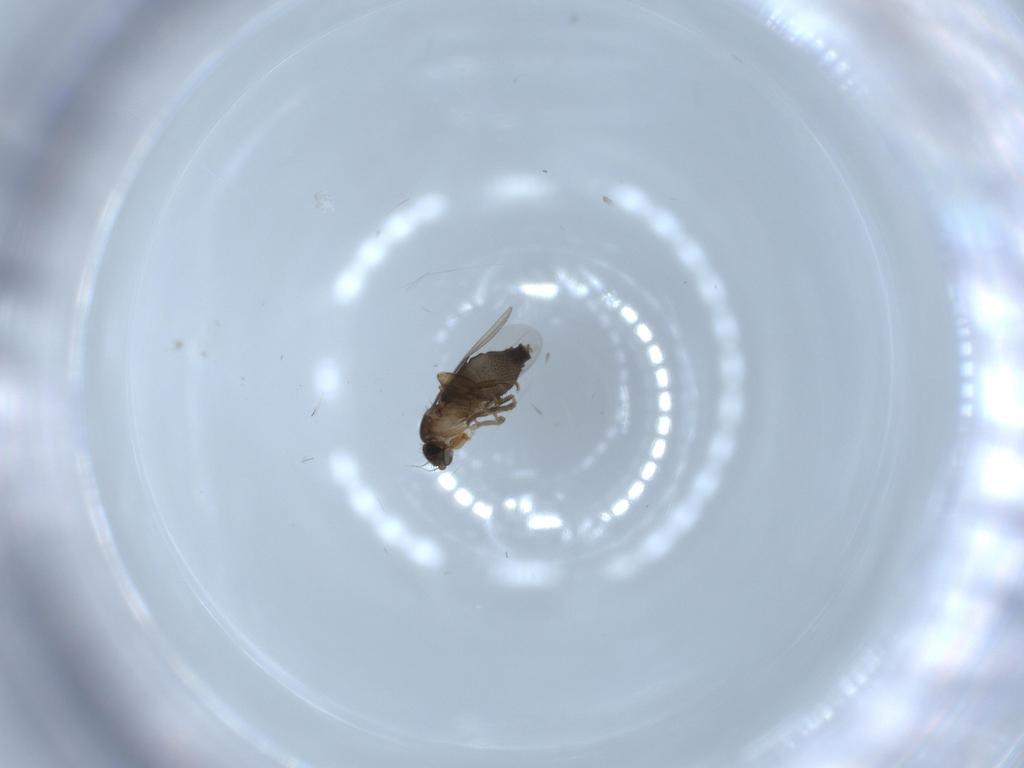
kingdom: Animalia
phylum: Arthropoda
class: Insecta
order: Diptera
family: Phoridae
